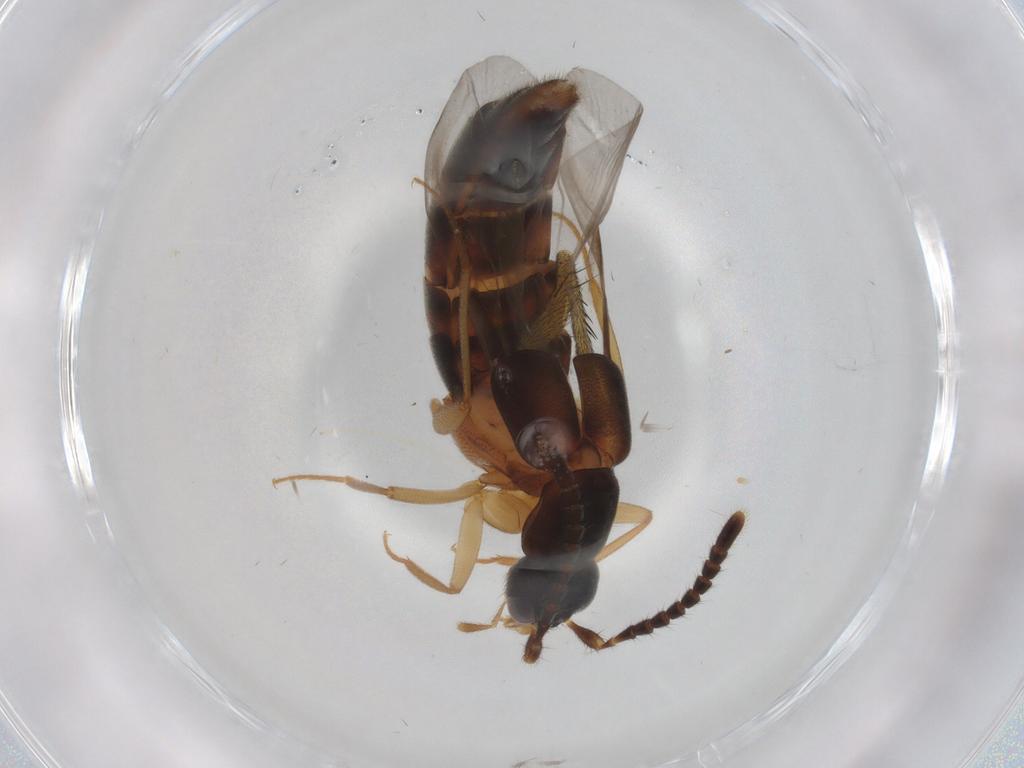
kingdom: Animalia
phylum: Arthropoda
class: Insecta
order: Coleoptera
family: Staphylinidae
